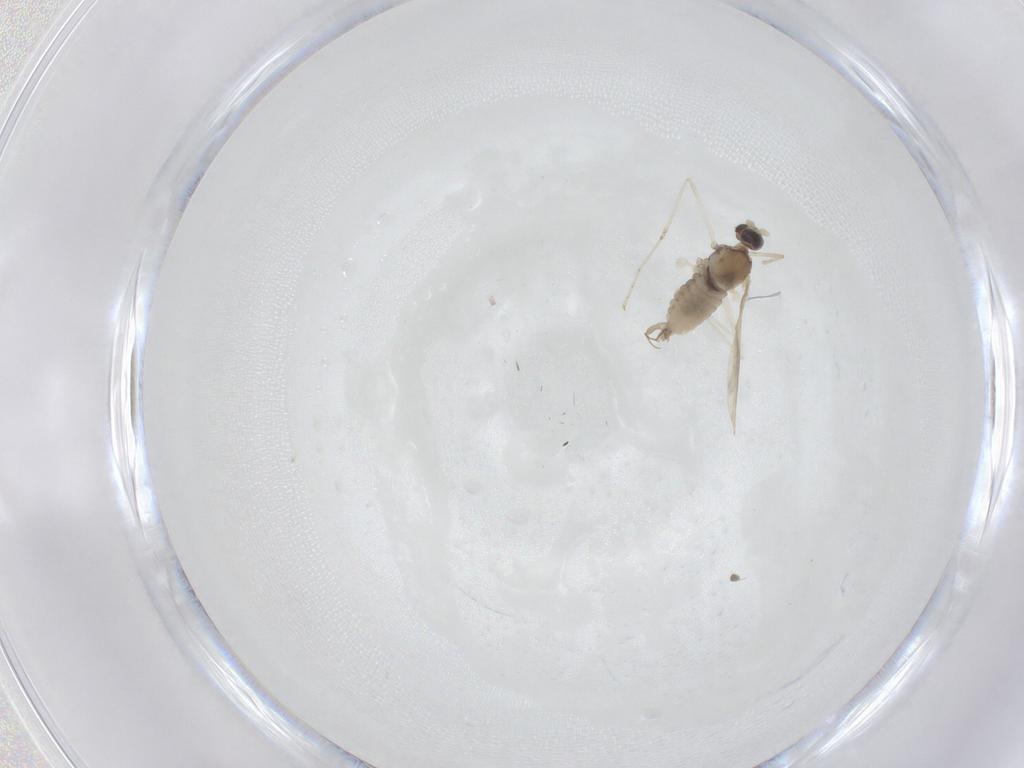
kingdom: Animalia
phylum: Arthropoda
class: Insecta
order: Diptera
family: Cecidomyiidae
